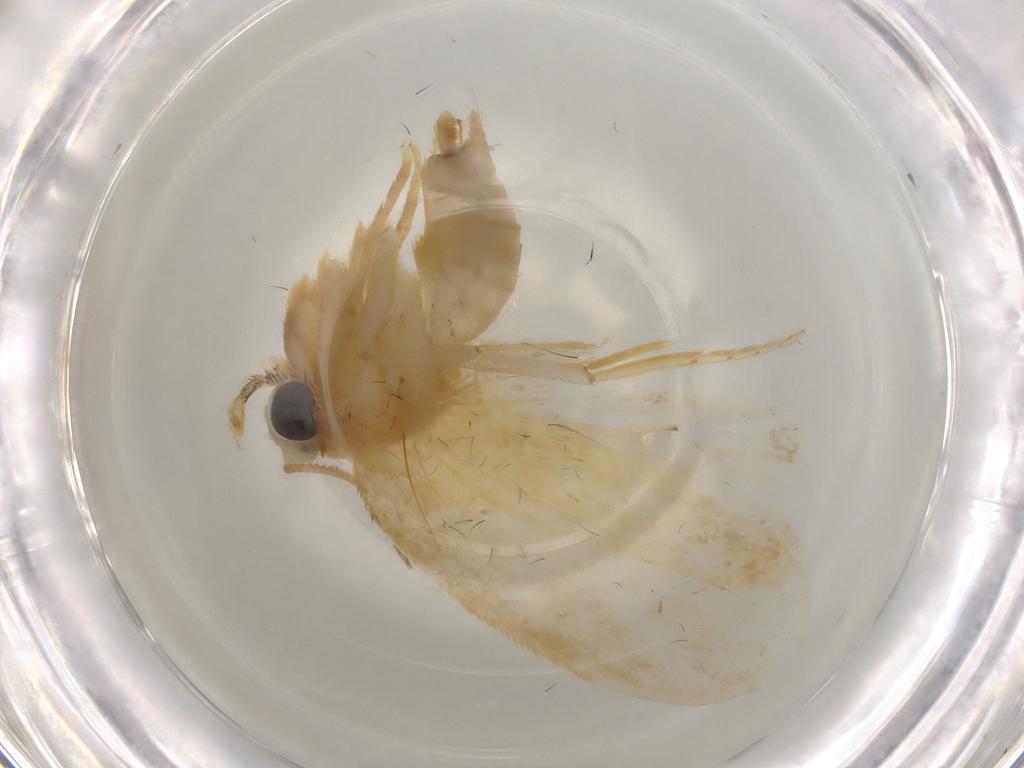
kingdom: Animalia
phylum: Arthropoda
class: Insecta
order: Lepidoptera
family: Psychidae
